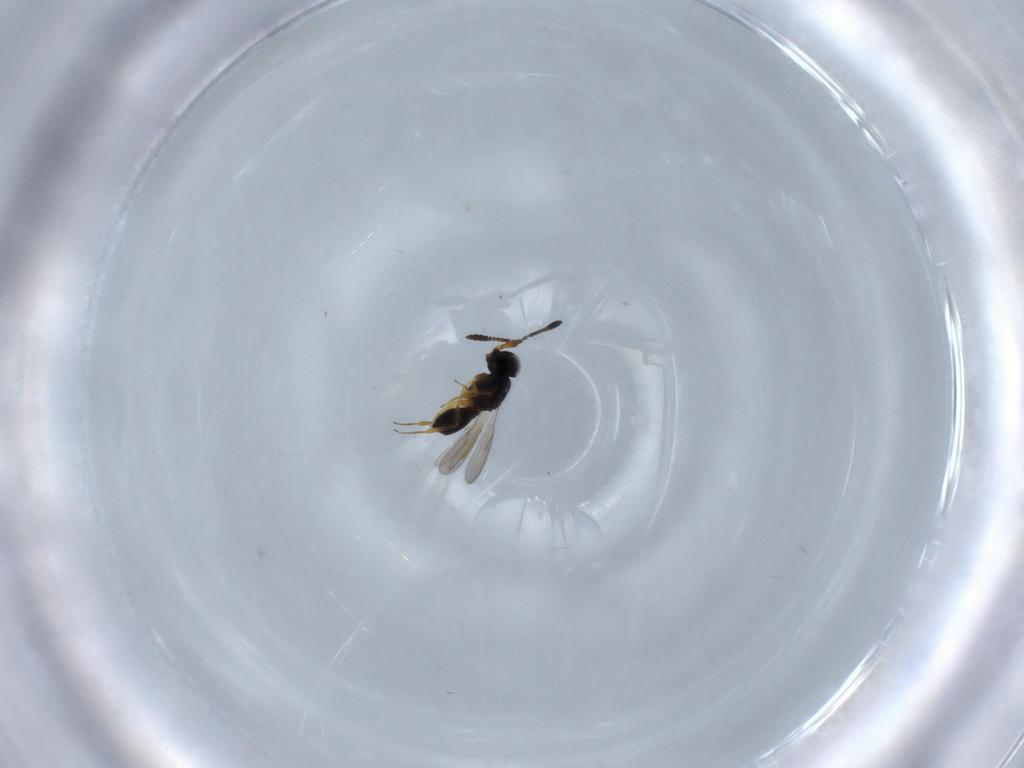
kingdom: Animalia
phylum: Arthropoda
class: Insecta
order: Hymenoptera
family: Scelionidae
